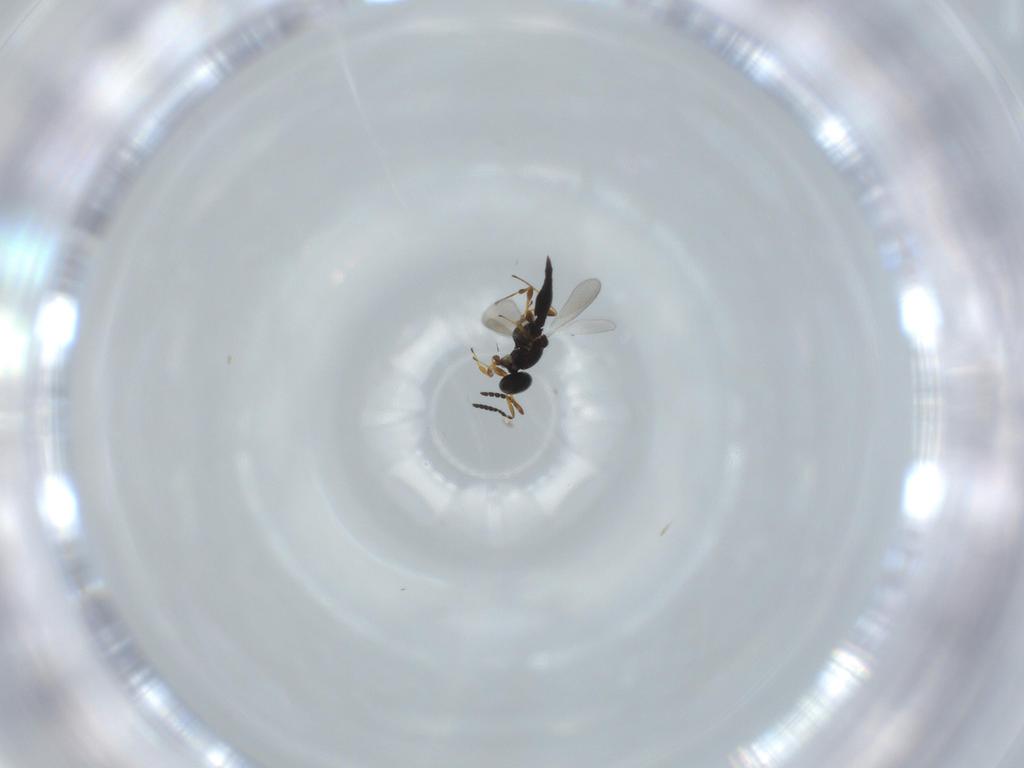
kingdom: Animalia
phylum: Arthropoda
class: Insecta
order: Hymenoptera
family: Platygastridae
